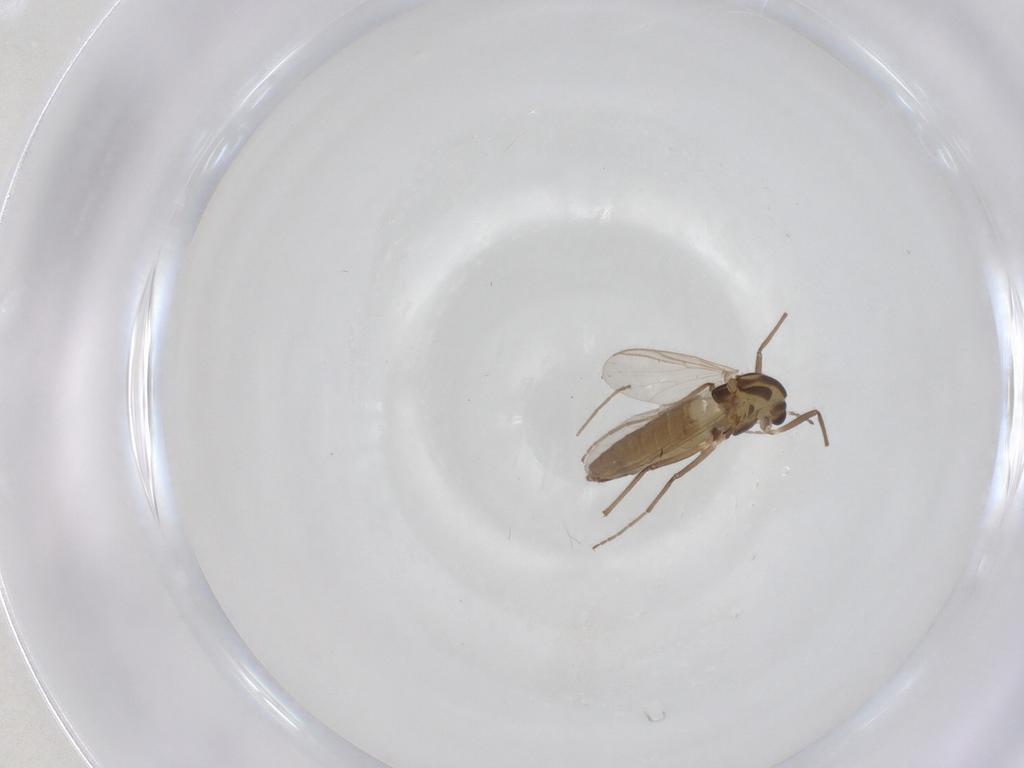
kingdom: Animalia
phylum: Arthropoda
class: Insecta
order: Diptera
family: Chironomidae
